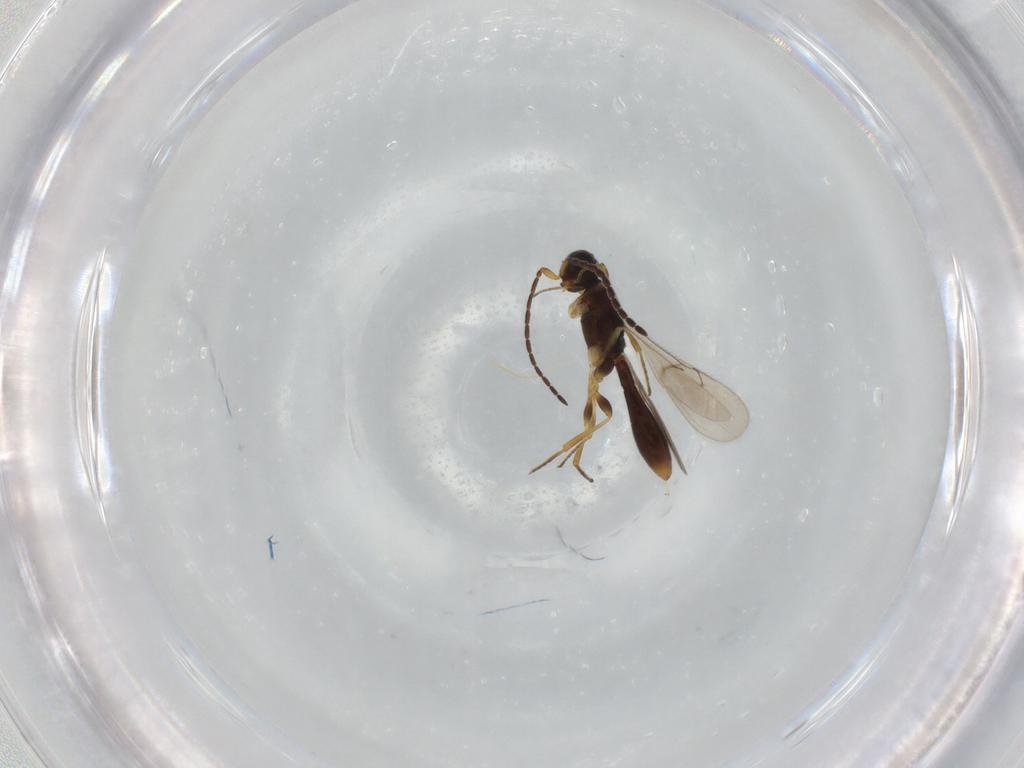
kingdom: Animalia
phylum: Arthropoda
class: Insecta
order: Hymenoptera
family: Scelionidae
